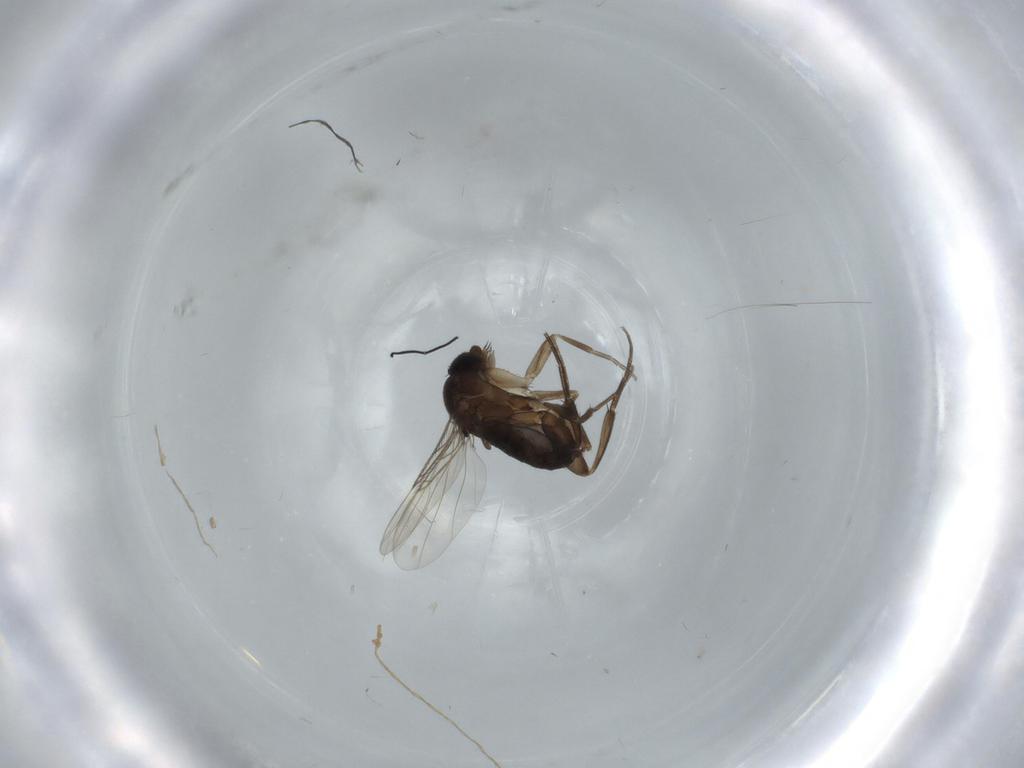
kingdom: Animalia
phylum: Arthropoda
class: Insecta
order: Diptera
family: Phoridae
